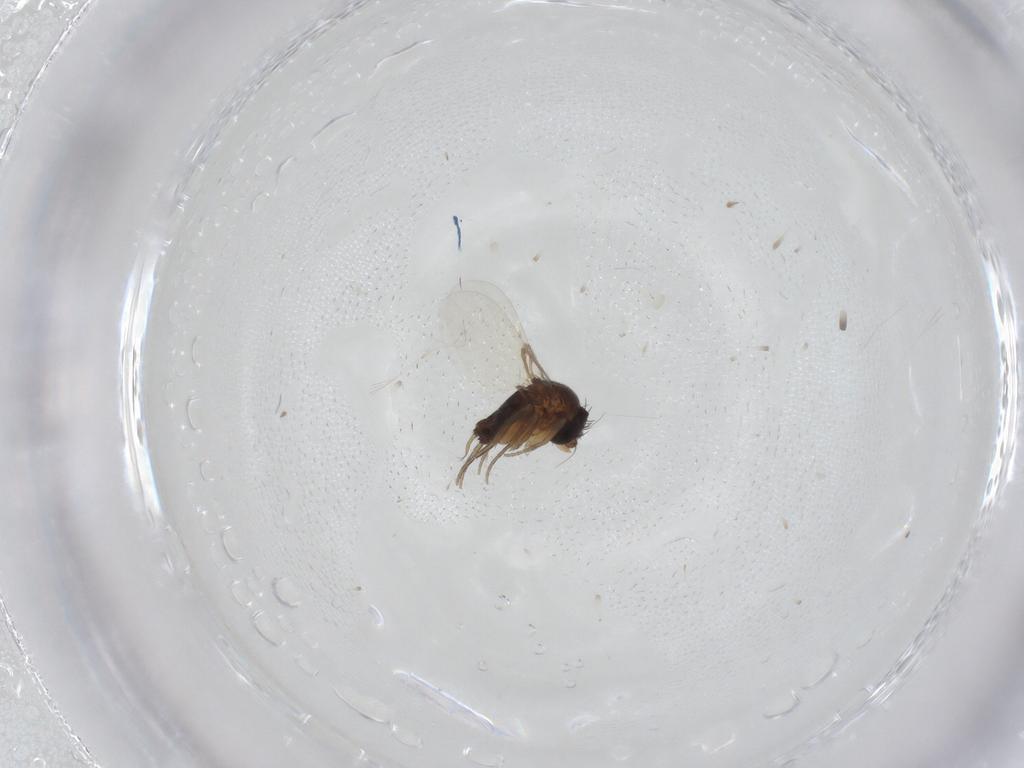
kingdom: Animalia
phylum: Arthropoda
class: Insecta
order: Diptera
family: Phoridae
